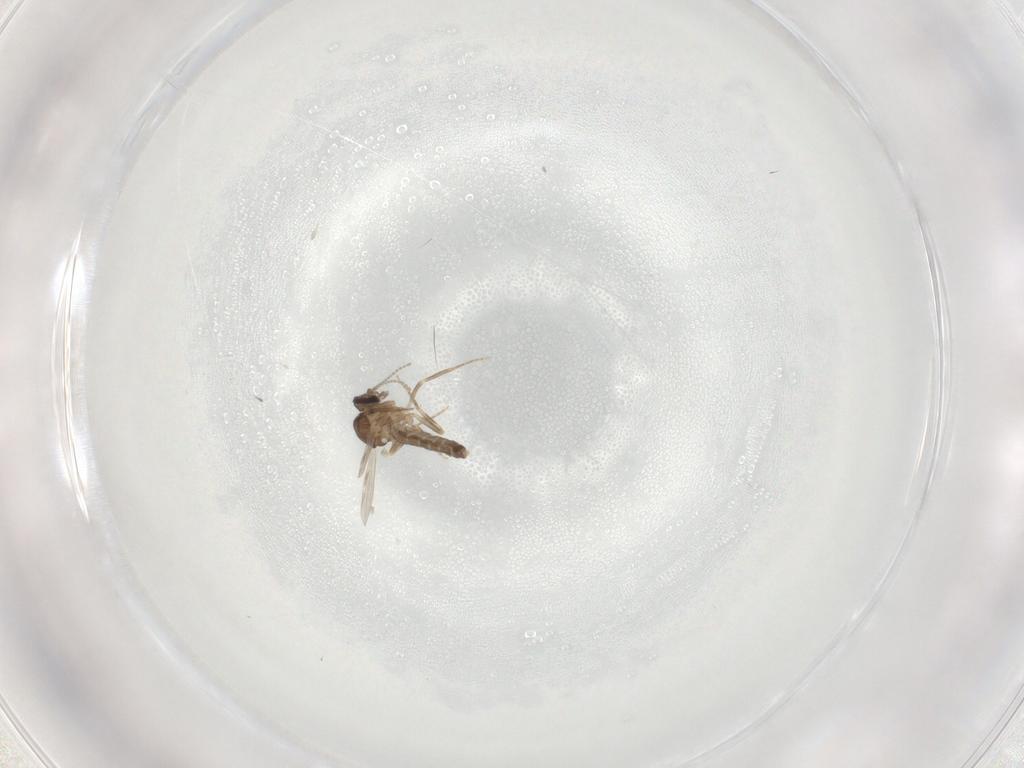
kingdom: Animalia
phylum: Arthropoda
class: Insecta
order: Diptera
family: Ceratopogonidae
